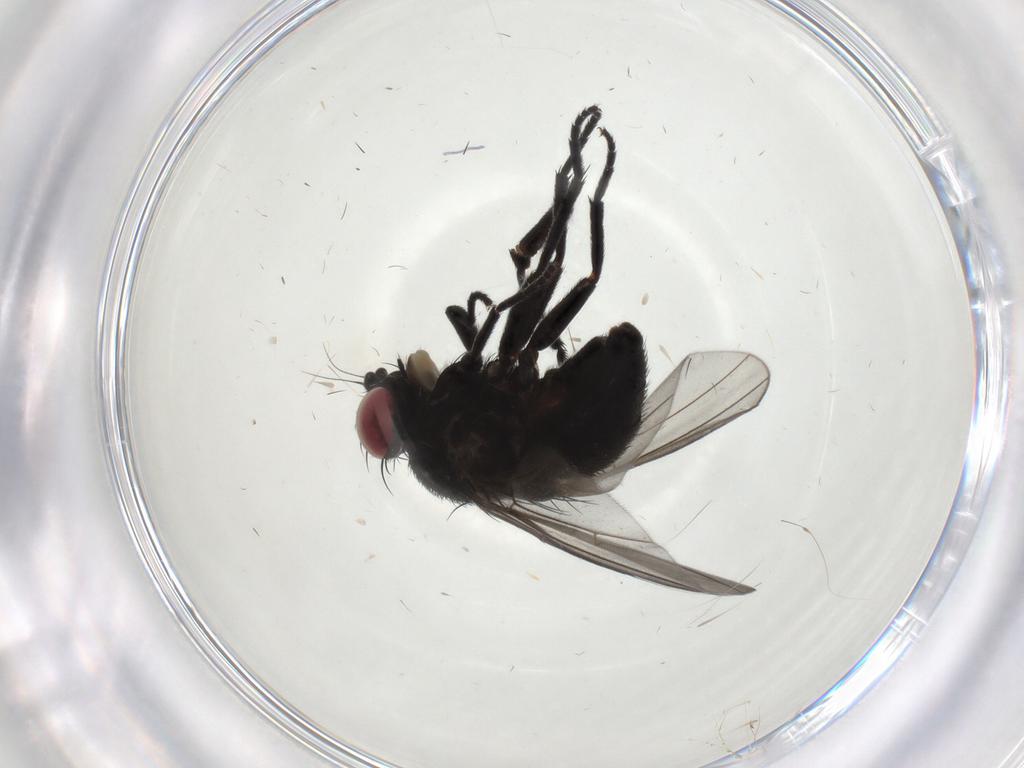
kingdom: Animalia
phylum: Arthropoda
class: Insecta
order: Diptera
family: Agromyzidae
